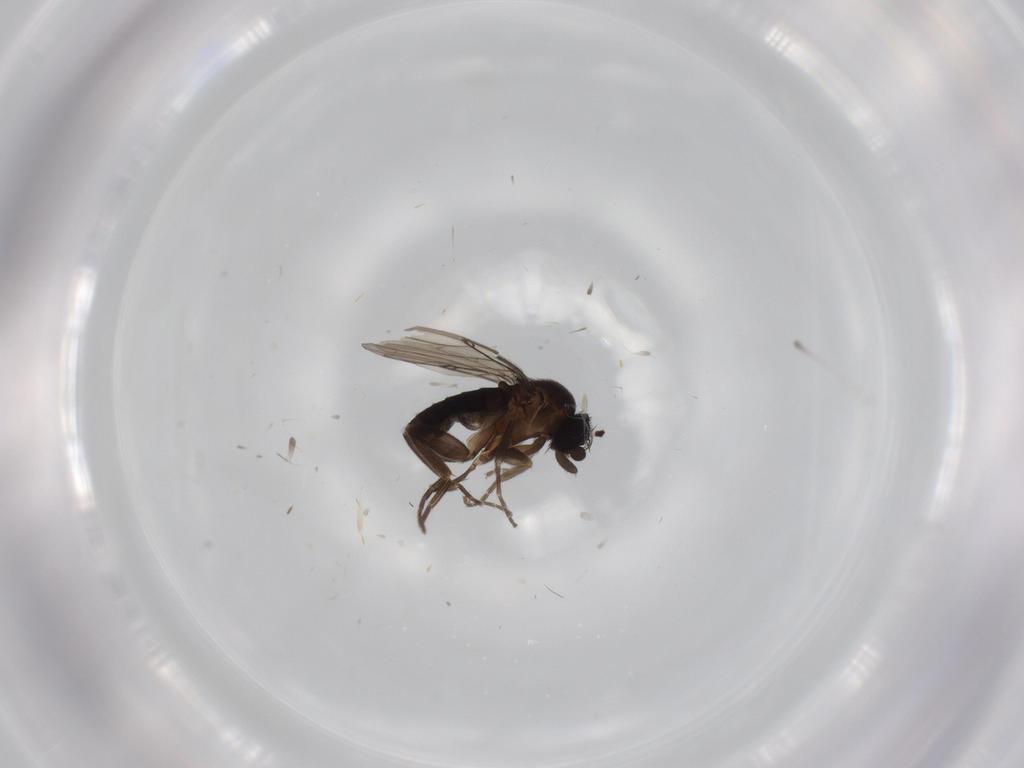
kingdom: Animalia
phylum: Arthropoda
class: Insecta
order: Diptera
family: Phoridae
